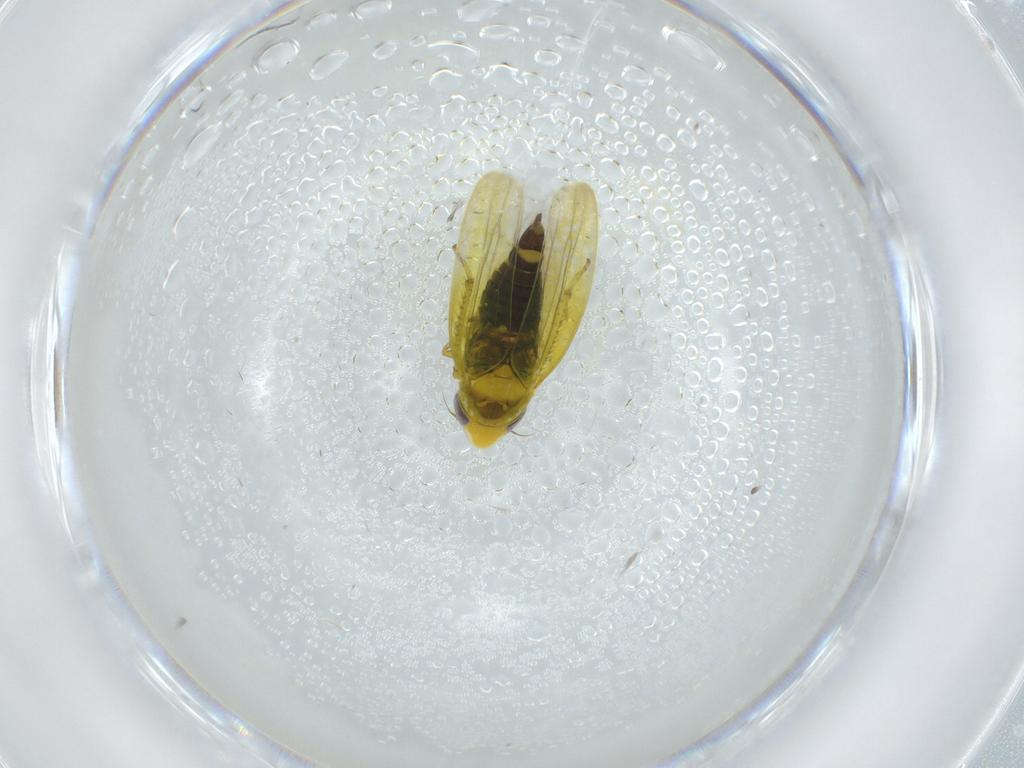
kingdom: Animalia
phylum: Arthropoda
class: Insecta
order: Hemiptera
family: Cicadellidae
